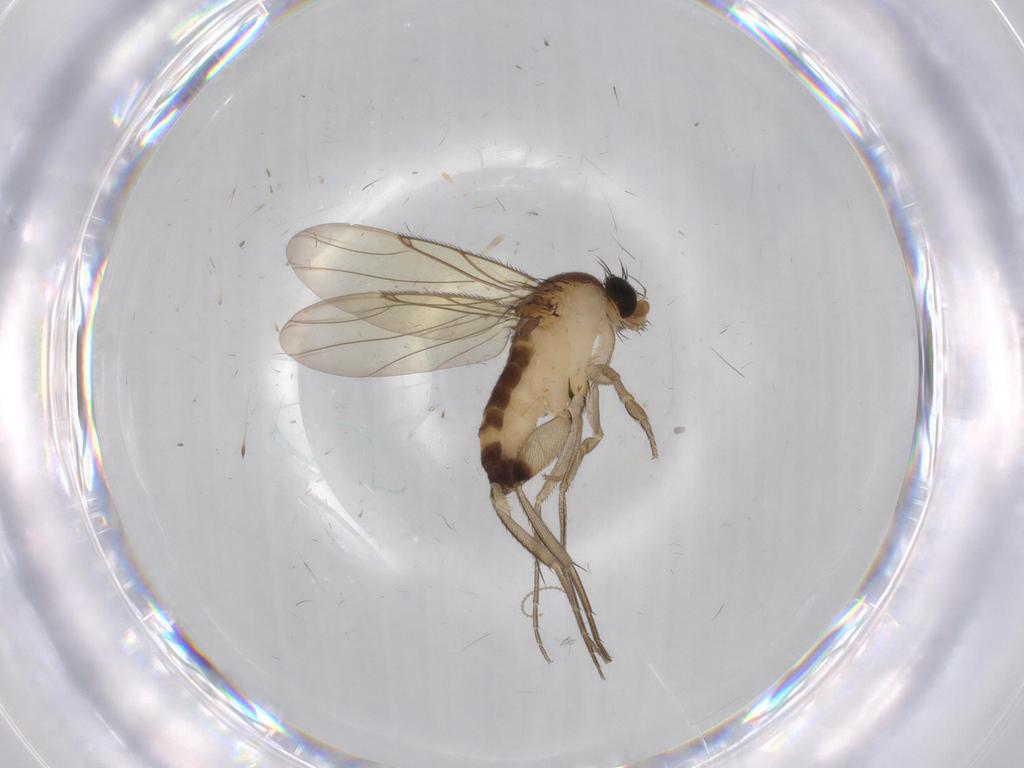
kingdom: Animalia
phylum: Arthropoda
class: Insecta
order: Diptera
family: Phoridae
